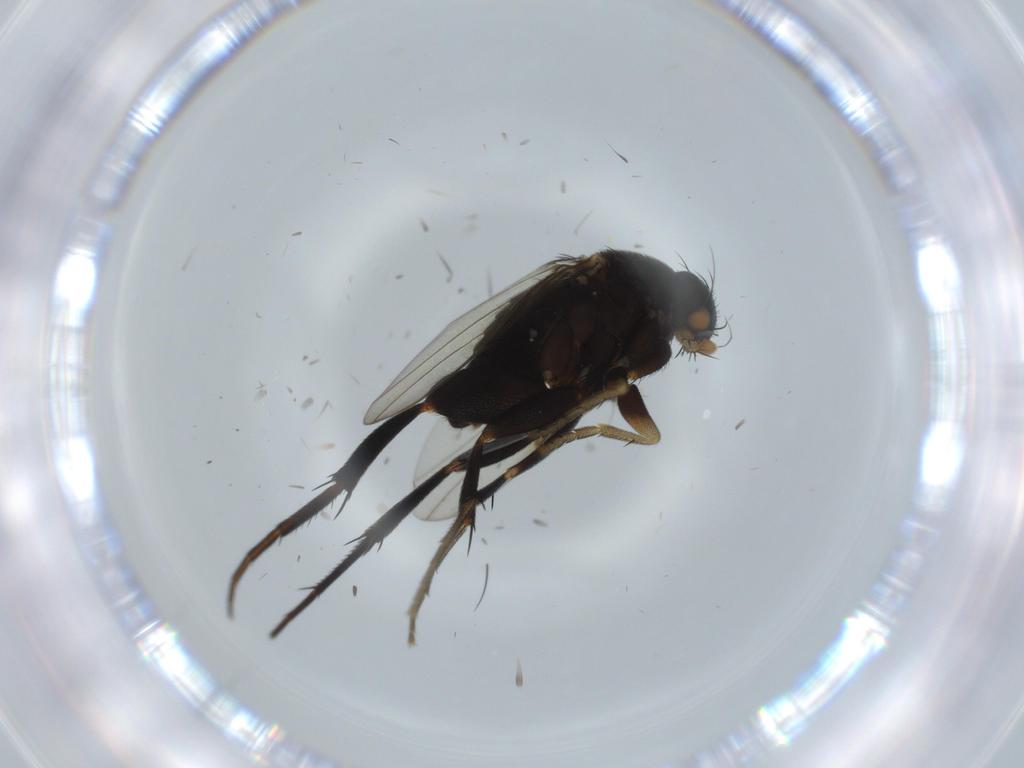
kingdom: Animalia
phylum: Arthropoda
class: Insecta
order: Diptera
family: Phoridae
